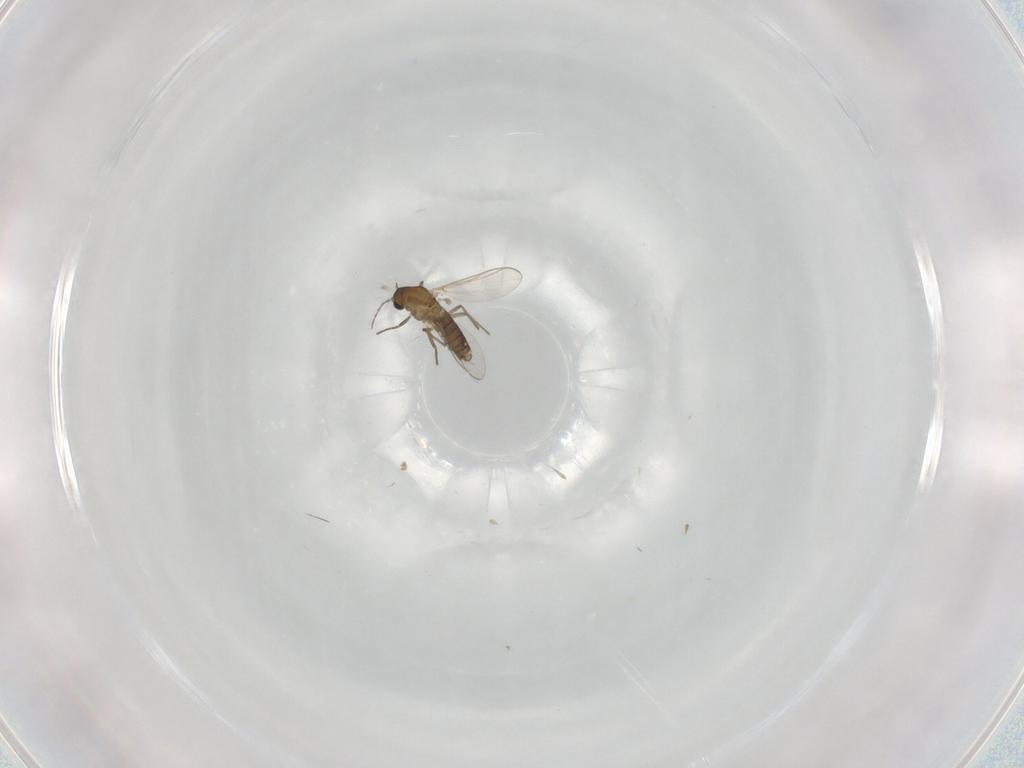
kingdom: Animalia
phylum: Arthropoda
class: Insecta
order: Diptera
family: Chironomidae
